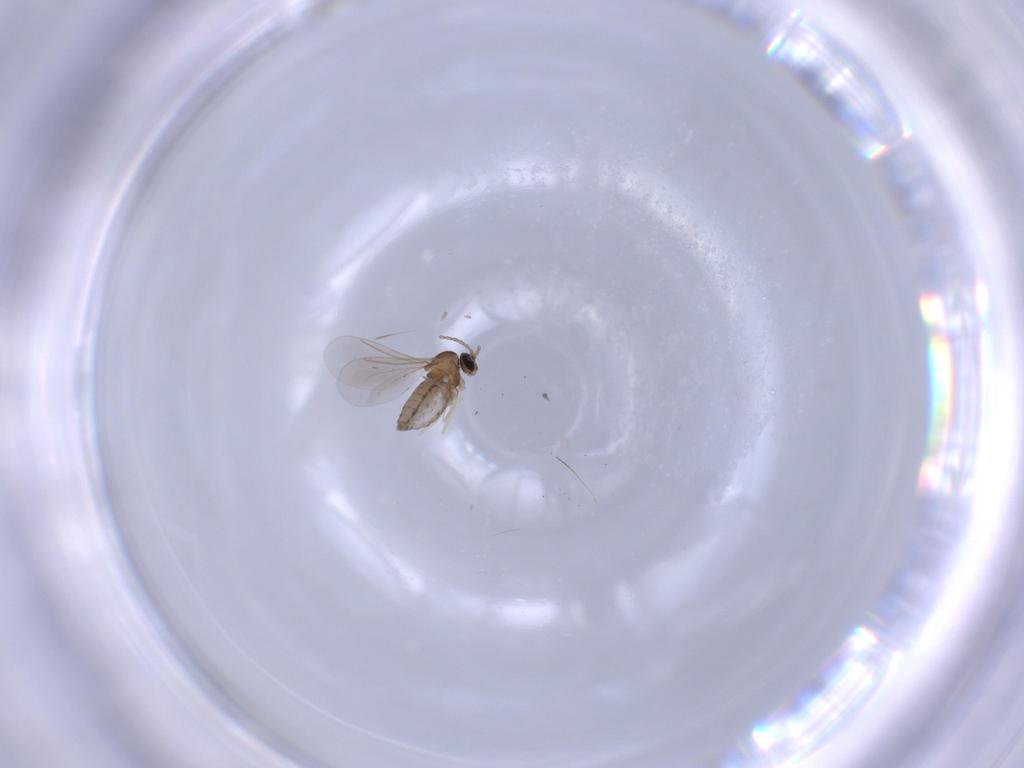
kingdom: Animalia
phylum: Arthropoda
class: Insecta
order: Diptera
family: Cecidomyiidae
